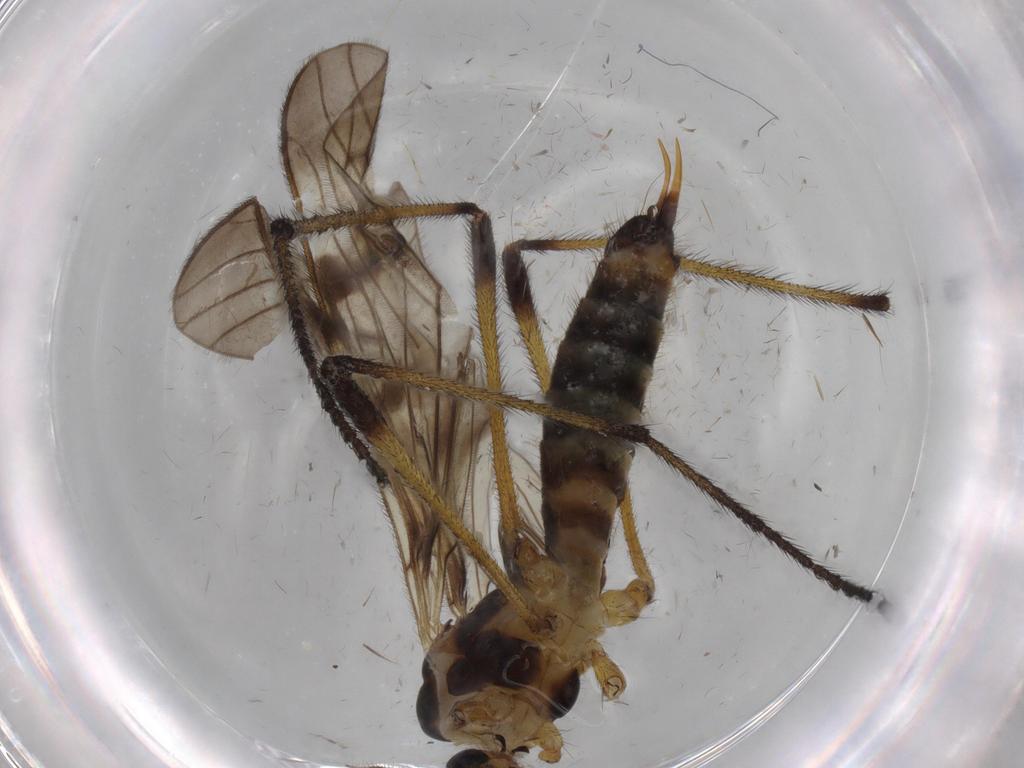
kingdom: Animalia
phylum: Arthropoda
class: Insecta
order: Diptera
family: Limoniidae
